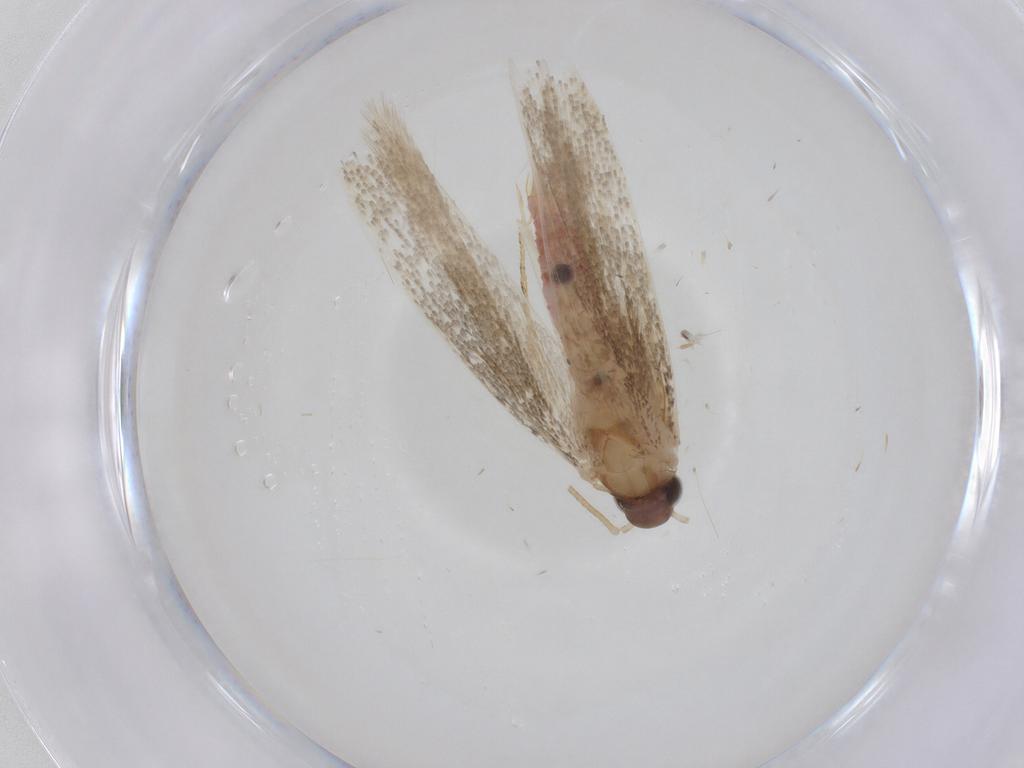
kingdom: Animalia
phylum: Arthropoda
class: Insecta
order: Lepidoptera
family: Crambidae
